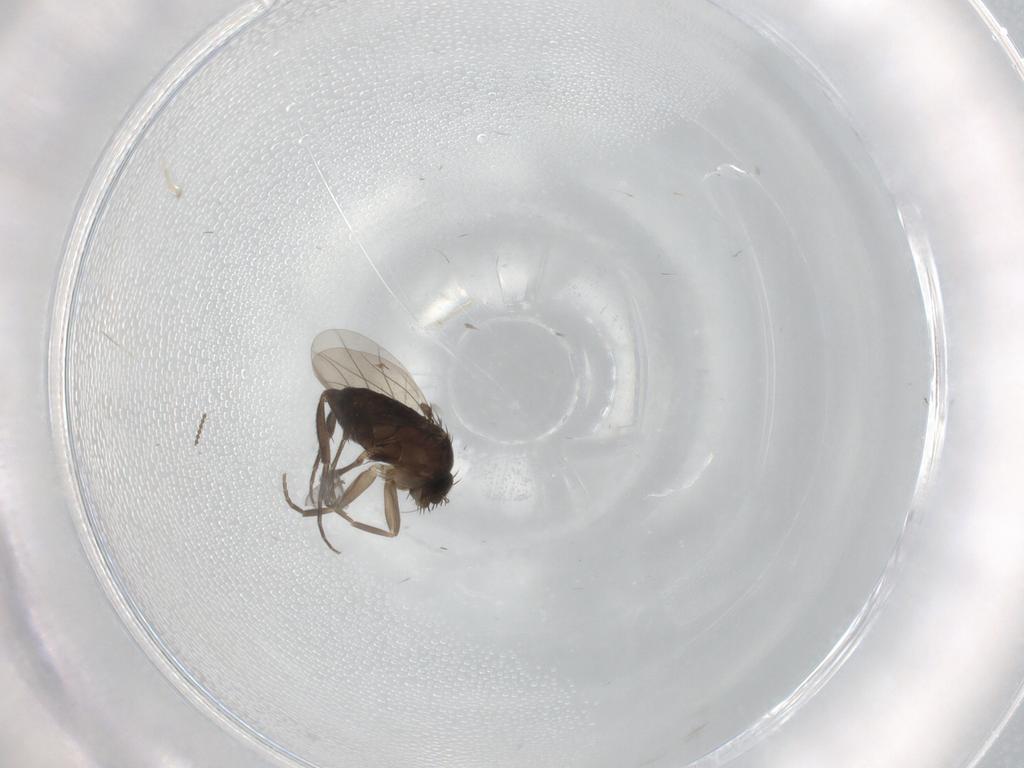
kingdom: Animalia
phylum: Arthropoda
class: Insecta
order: Diptera
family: Phoridae
